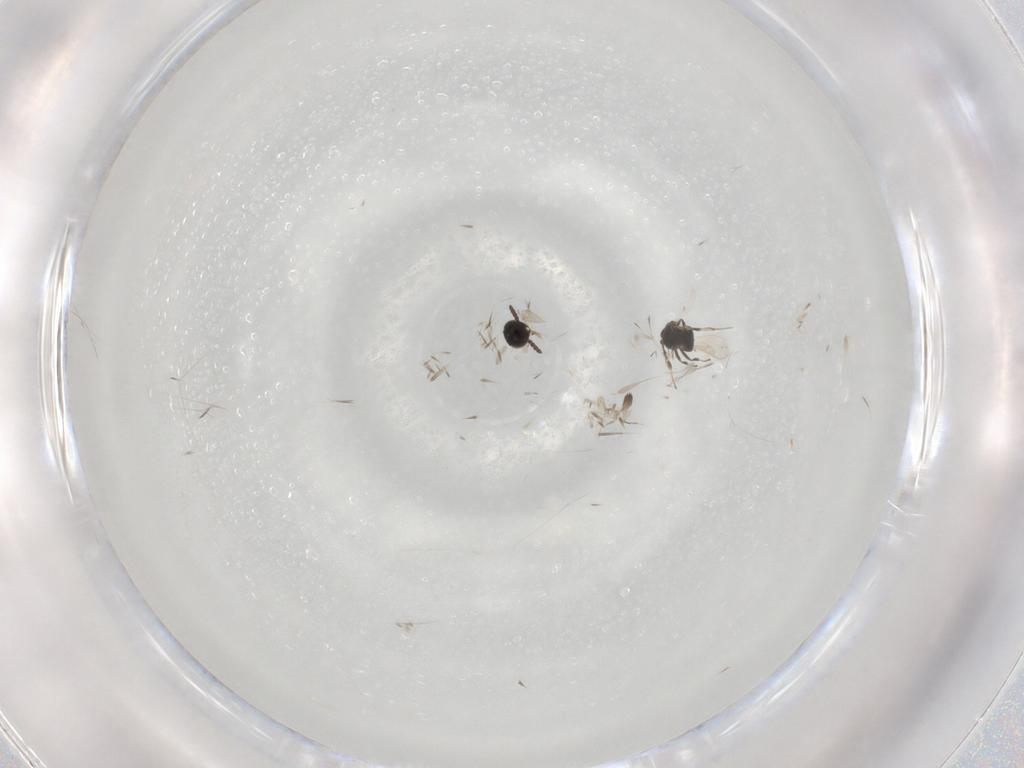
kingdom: Animalia
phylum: Arthropoda
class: Insecta
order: Hymenoptera
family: Scelionidae
